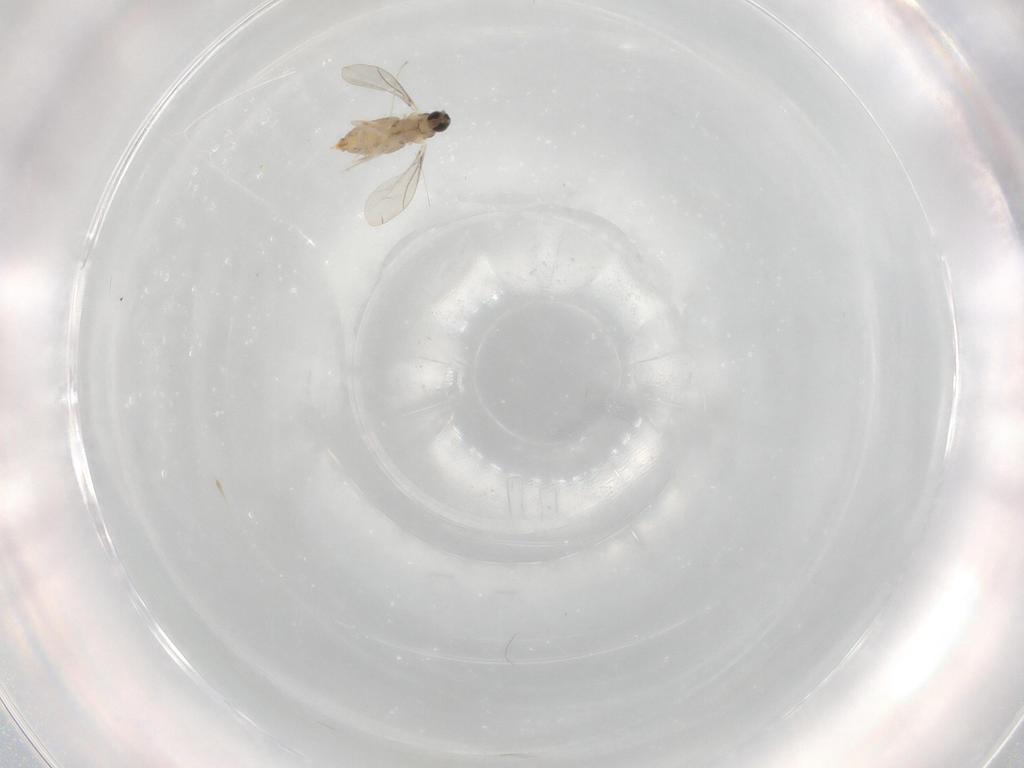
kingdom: Animalia
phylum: Arthropoda
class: Insecta
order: Diptera
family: Cecidomyiidae
